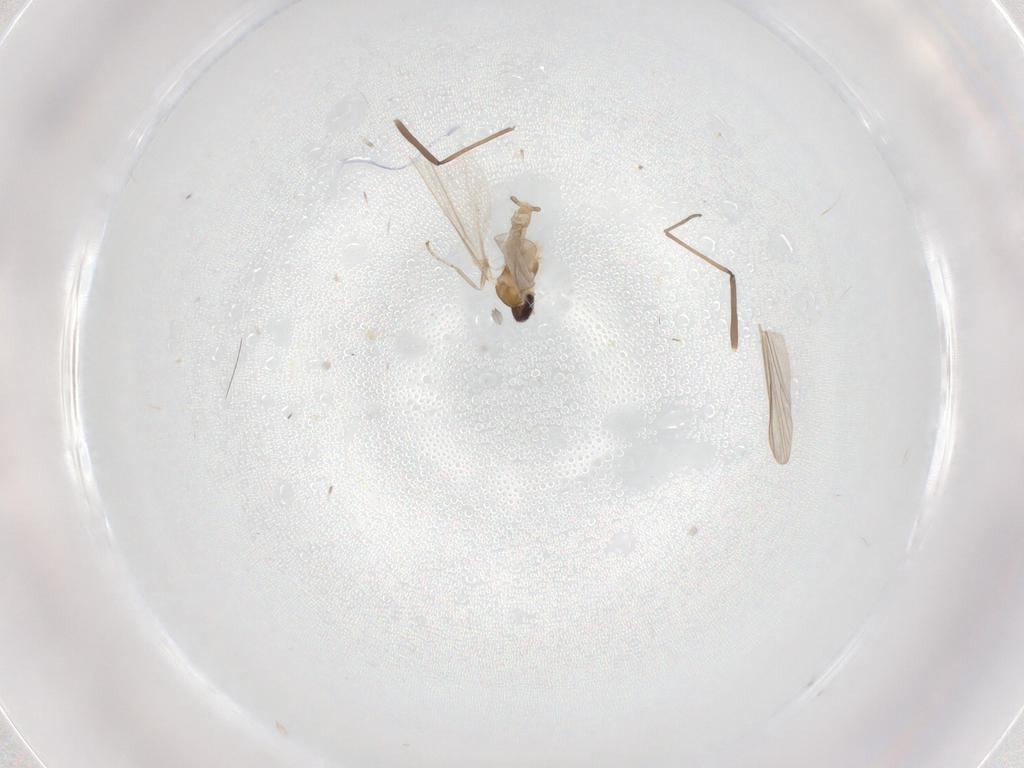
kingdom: Animalia
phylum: Arthropoda
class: Insecta
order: Diptera
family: Cecidomyiidae
